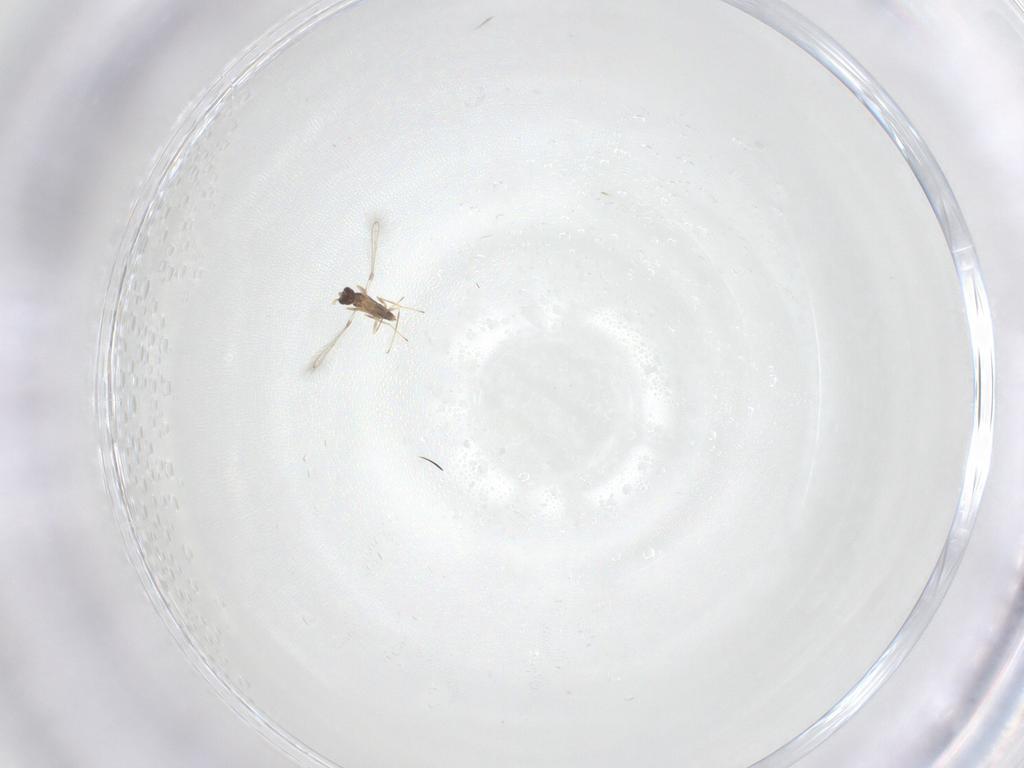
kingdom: Animalia
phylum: Arthropoda
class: Insecta
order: Hymenoptera
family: Mymaridae
